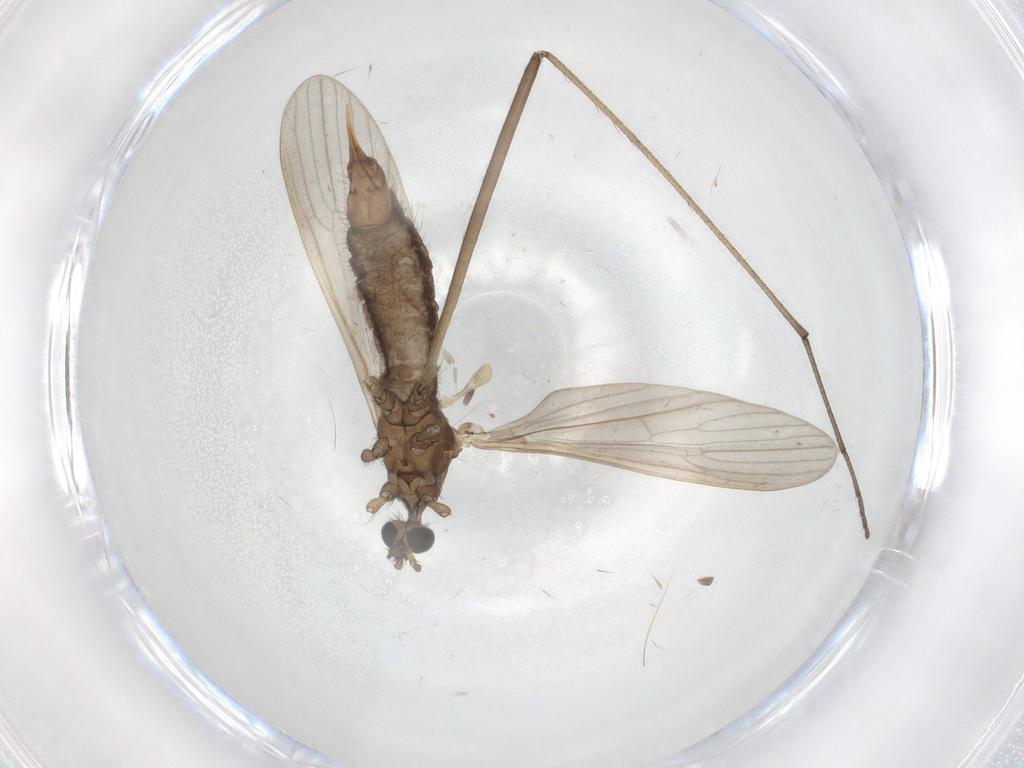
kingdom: Animalia
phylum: Arthropoda
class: Insecta
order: Diptera
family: Limoniidae
